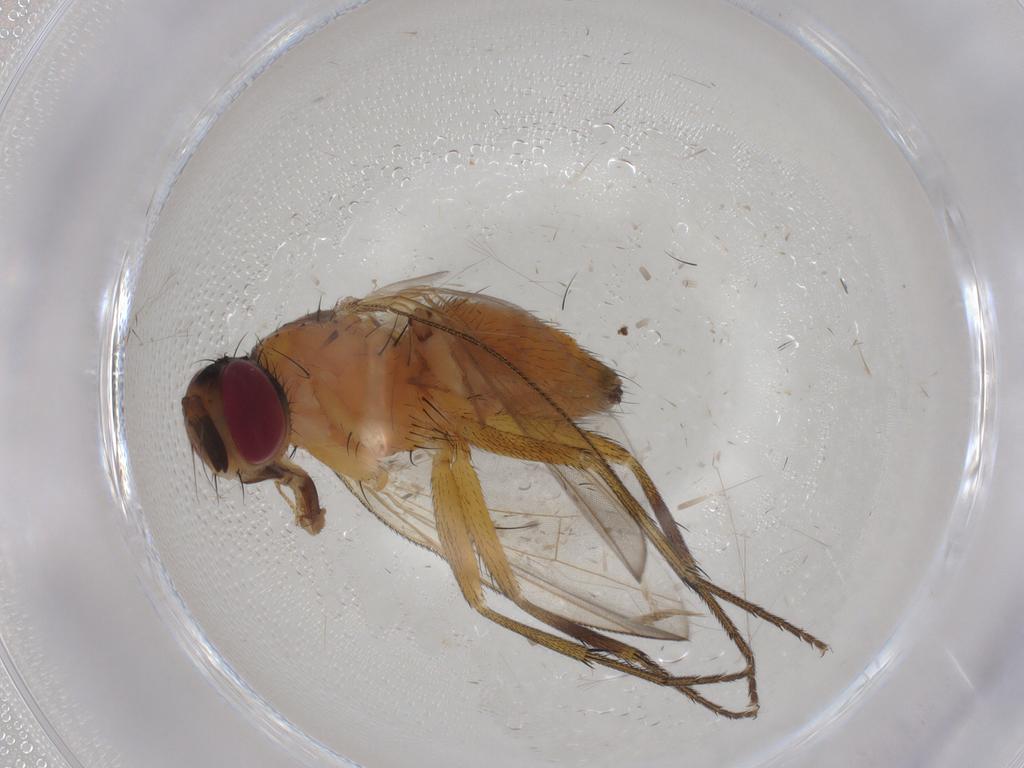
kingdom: Animalia
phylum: Arthropoda
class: Insecta
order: Diptera
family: Chironomidae
